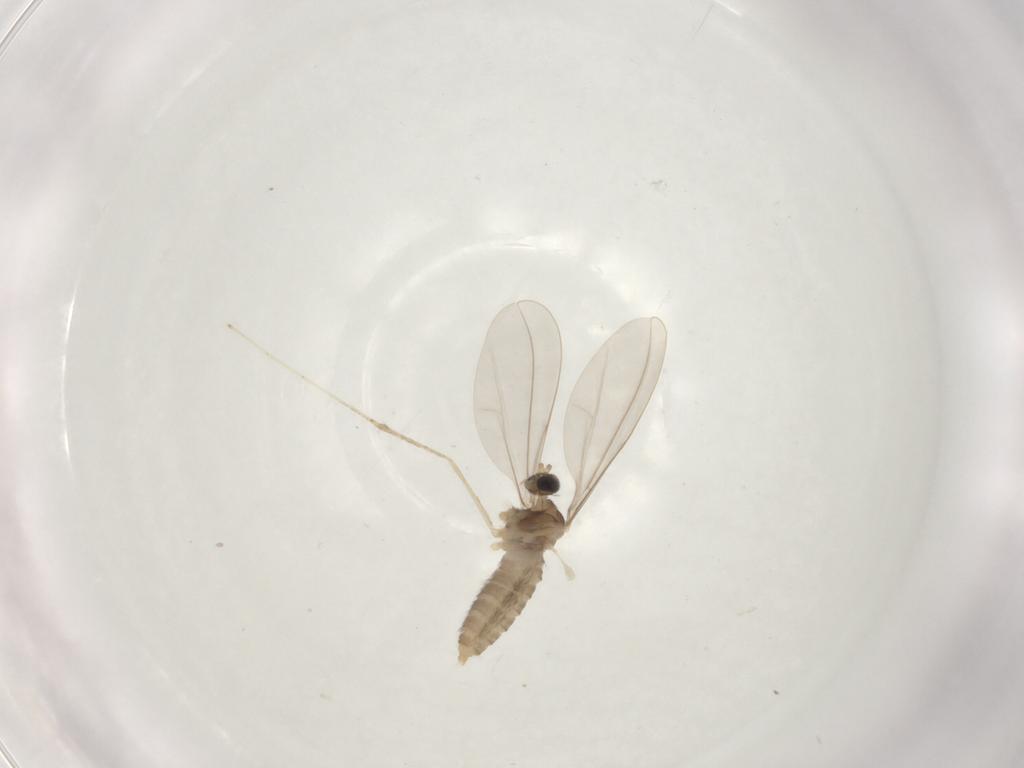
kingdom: Animalia
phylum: Arthropoda
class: Insecta
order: Diptera
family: Cecidomyiidae
